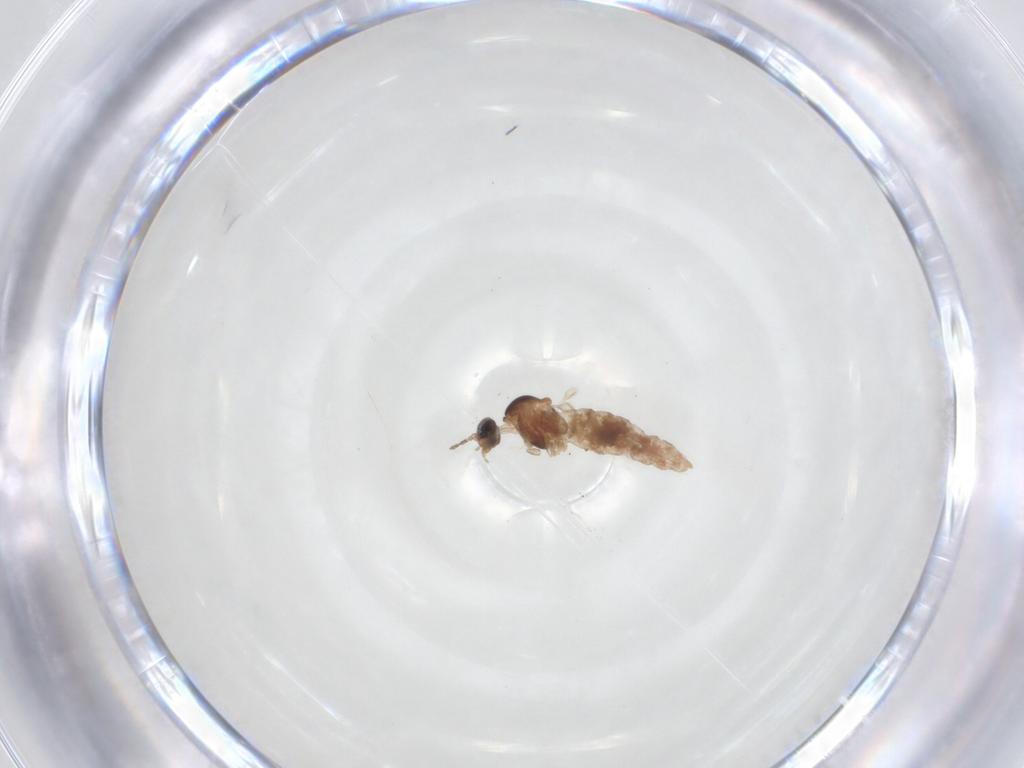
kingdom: Animalia
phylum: Arthropoda
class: Insecta
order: Diptera
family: Cecidomyiidae
